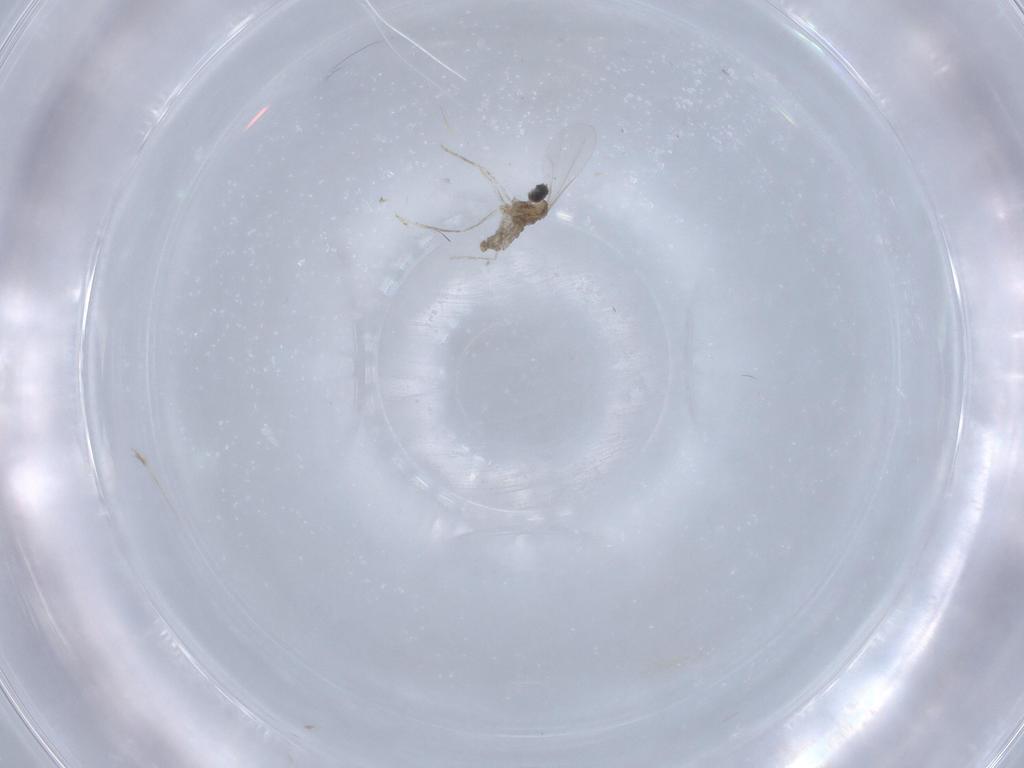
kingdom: Animalia
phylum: Arthropoda
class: Insecta
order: Diptera
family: Cecidomyiidae
